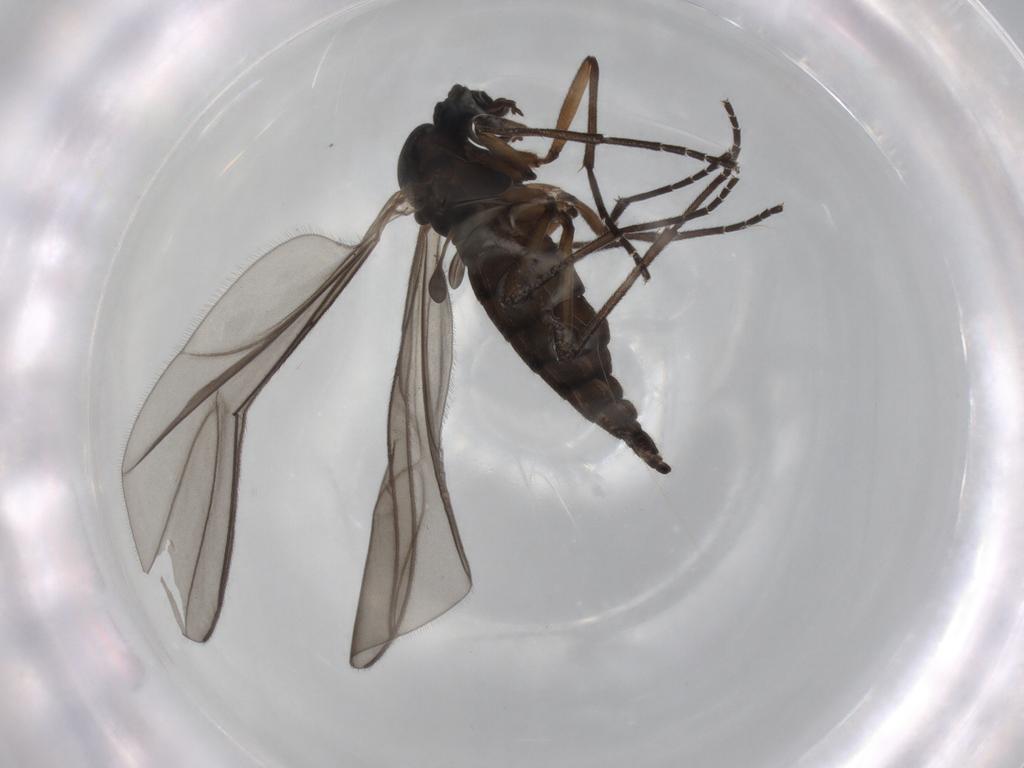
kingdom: Animalia
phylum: Arthropoda
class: Insecta
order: Diptera
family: Sciaridae
